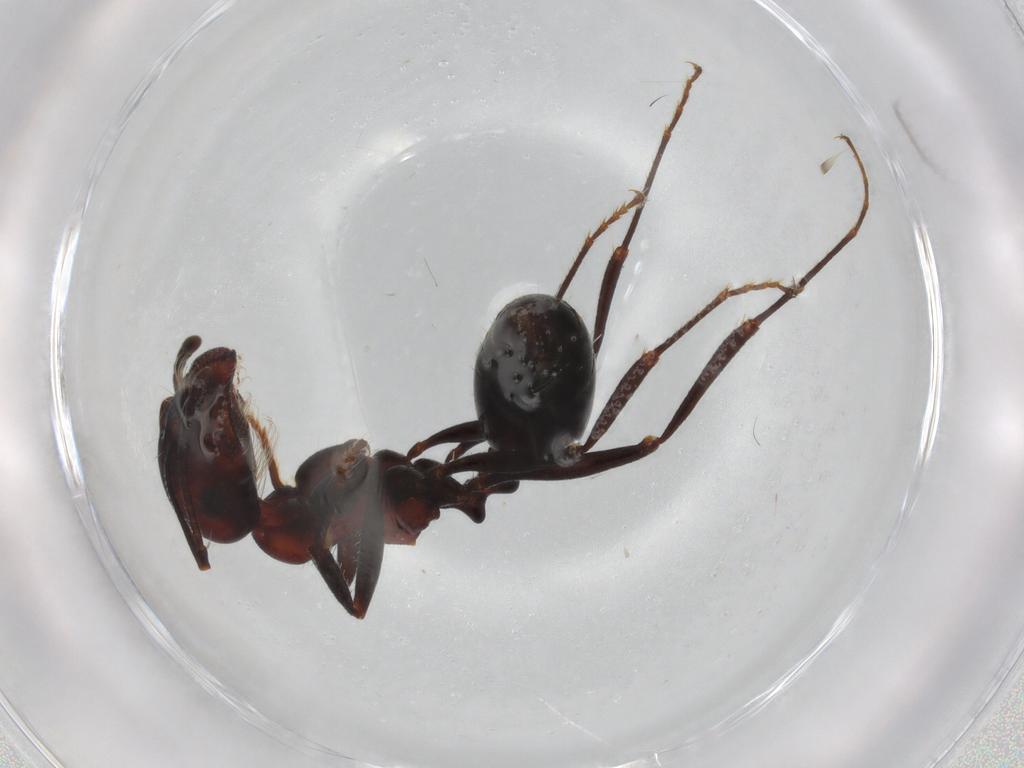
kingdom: Animalia
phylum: Arthropoda
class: Insecta
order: Hymenoptera
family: Formicidae
